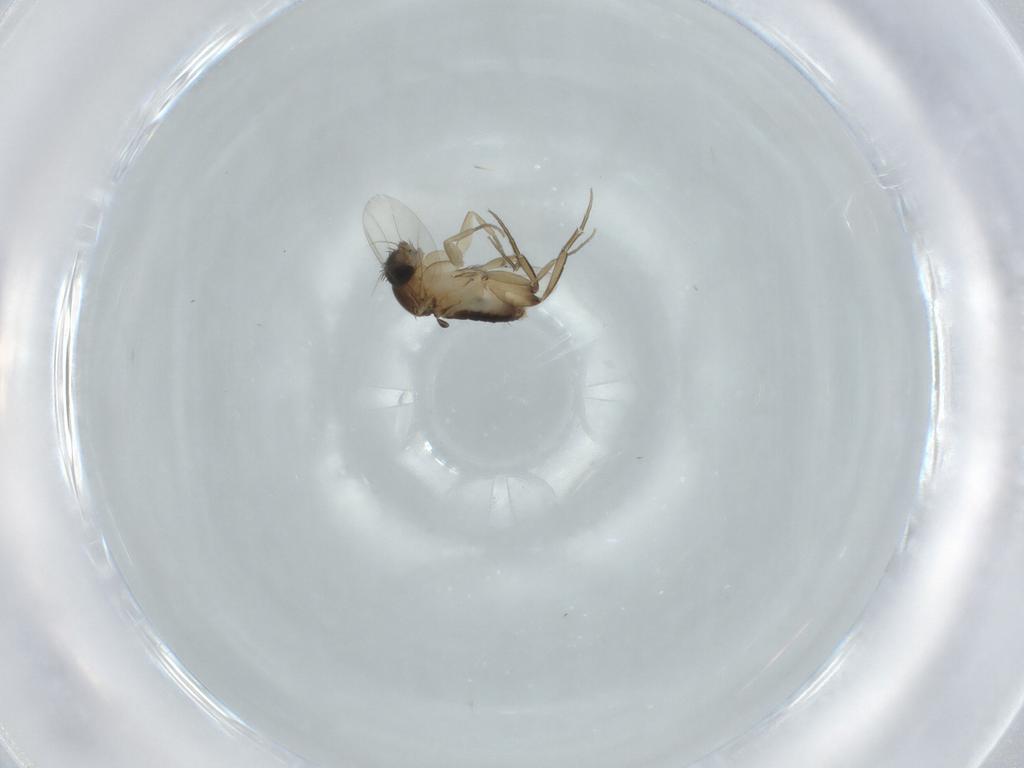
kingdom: Animalia
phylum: Arthropoda
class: Insecta
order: Diptera
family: Phoridae
